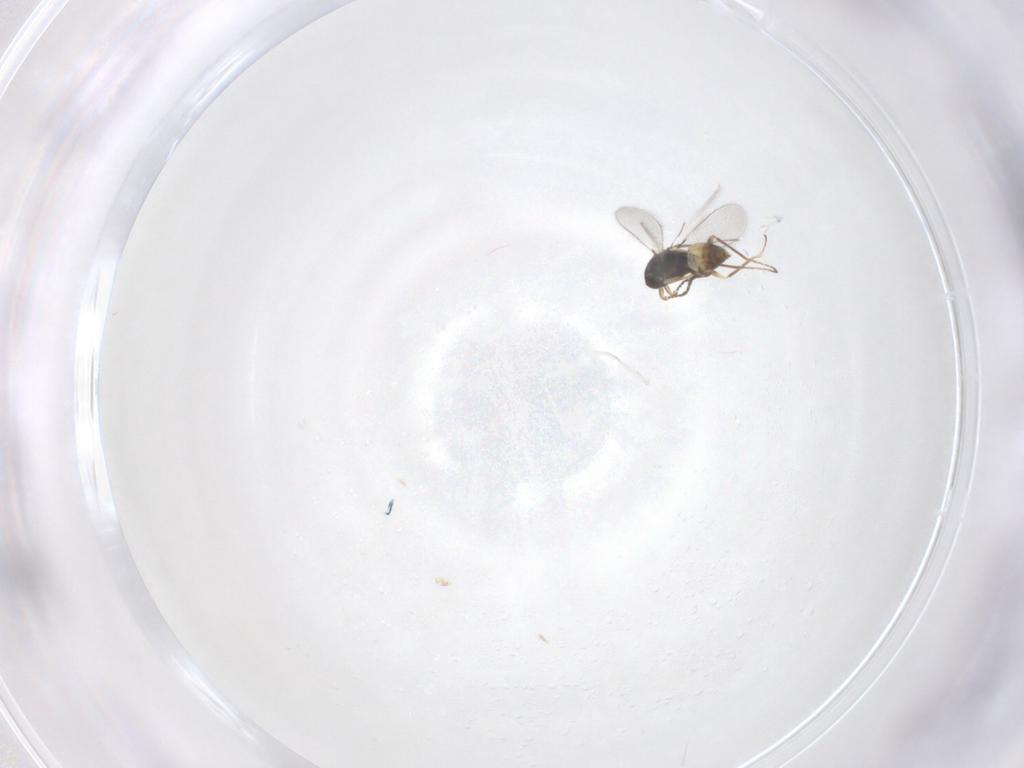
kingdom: Animalia
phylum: Arthropoda
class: Insecta
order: Hymenoptera
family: Mymaridae
